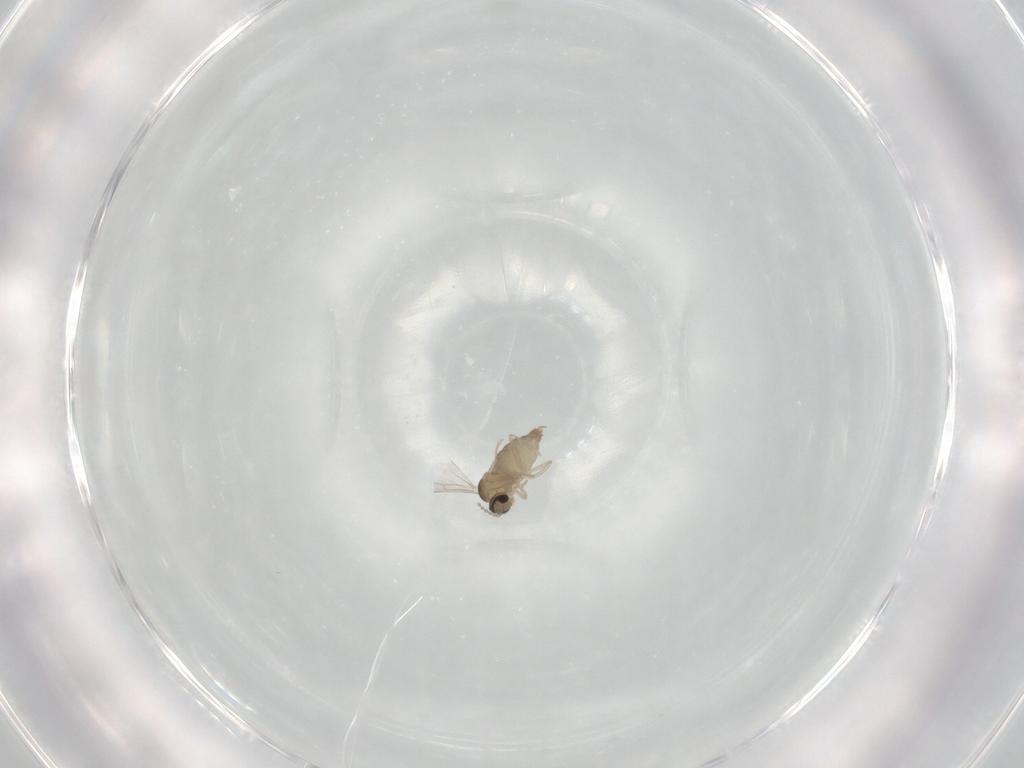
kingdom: Animalia
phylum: Arthropoda
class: Insecta
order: Diptera
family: Cecidomyiidae
